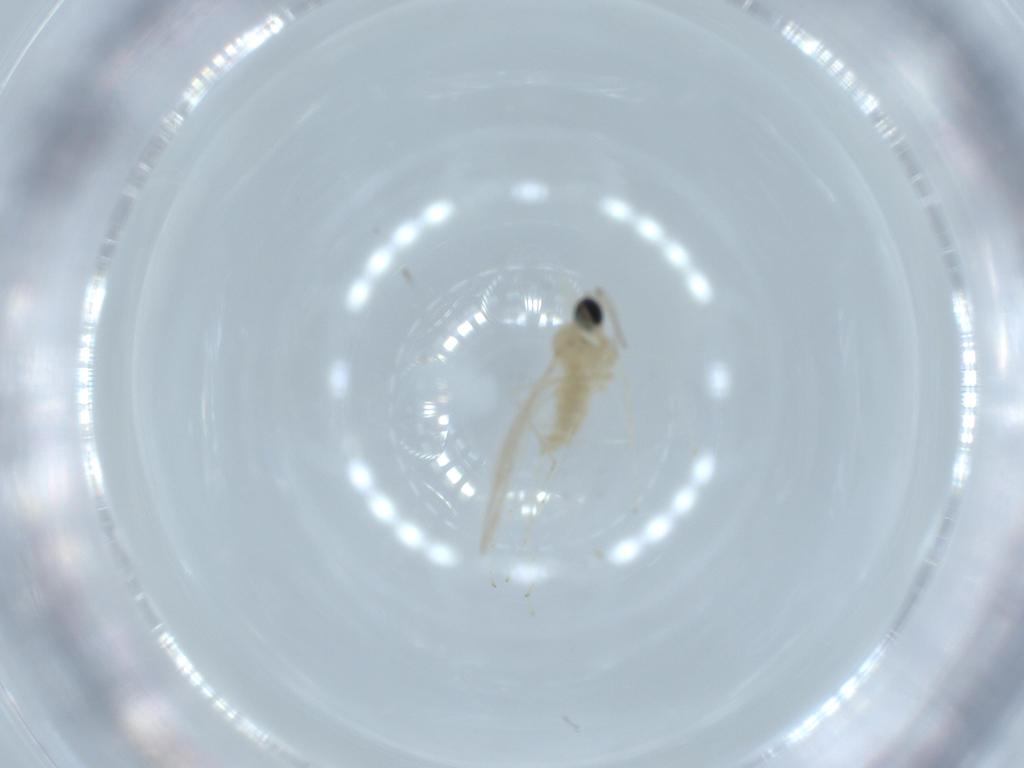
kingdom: Animalia
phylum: Arthropoda
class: Insecta
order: Diptera
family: Cecidomyiidae
